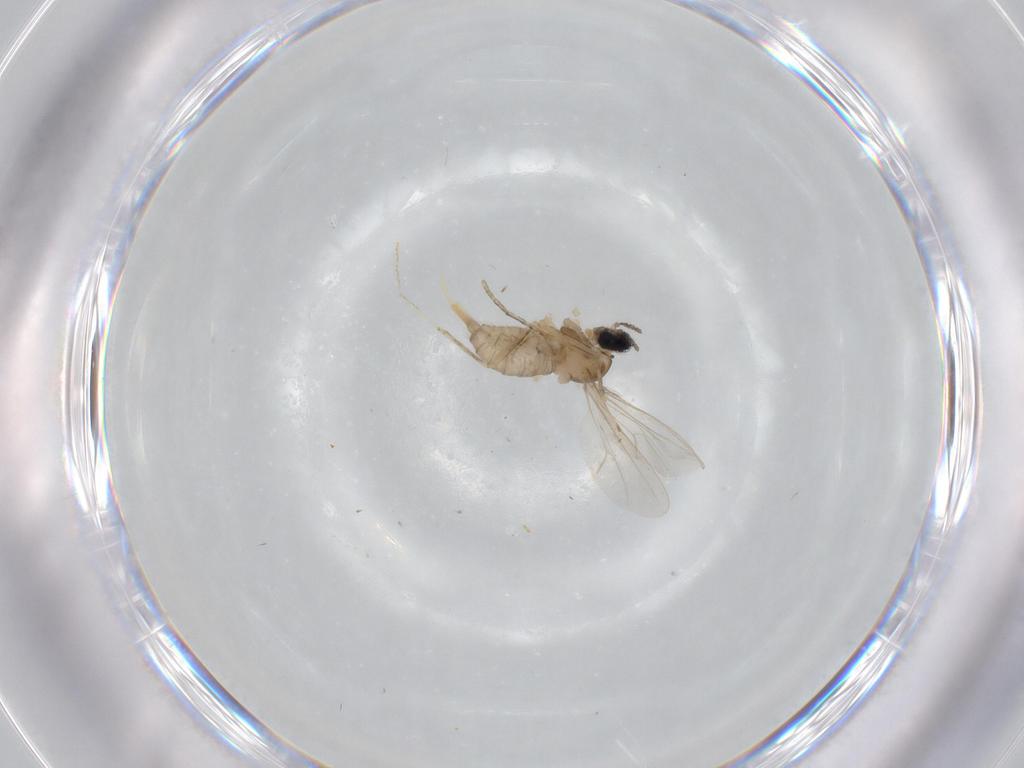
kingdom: Animalia
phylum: Arthropoda
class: Insecta
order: Diptera
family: Cecidomyiidae
